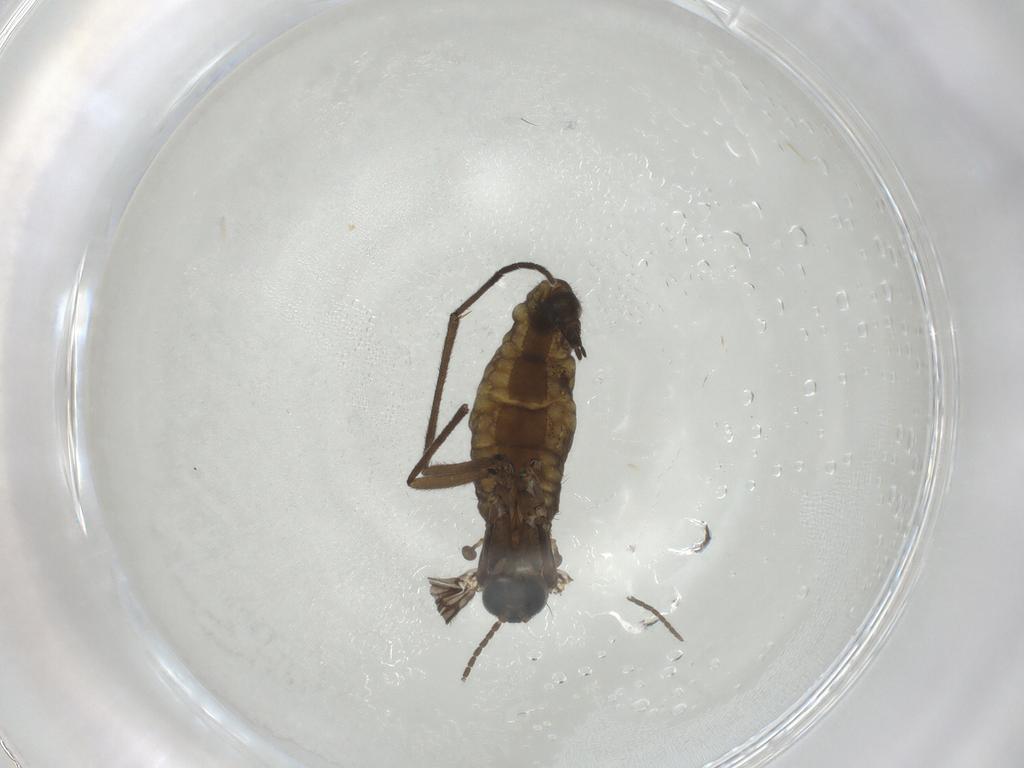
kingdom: Animalia
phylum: Arthropoda
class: Insecta
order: Diptera
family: Sciaridae
